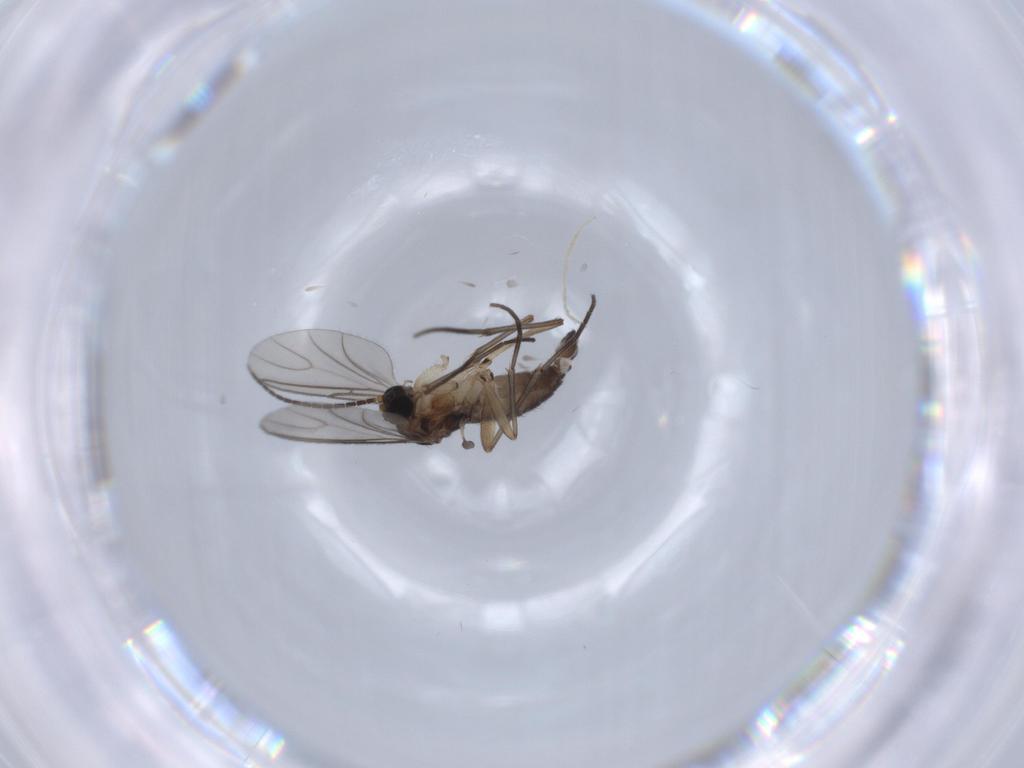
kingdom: Animalia
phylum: Arthropoda
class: Insecta
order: Diptera
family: Sciaridae
